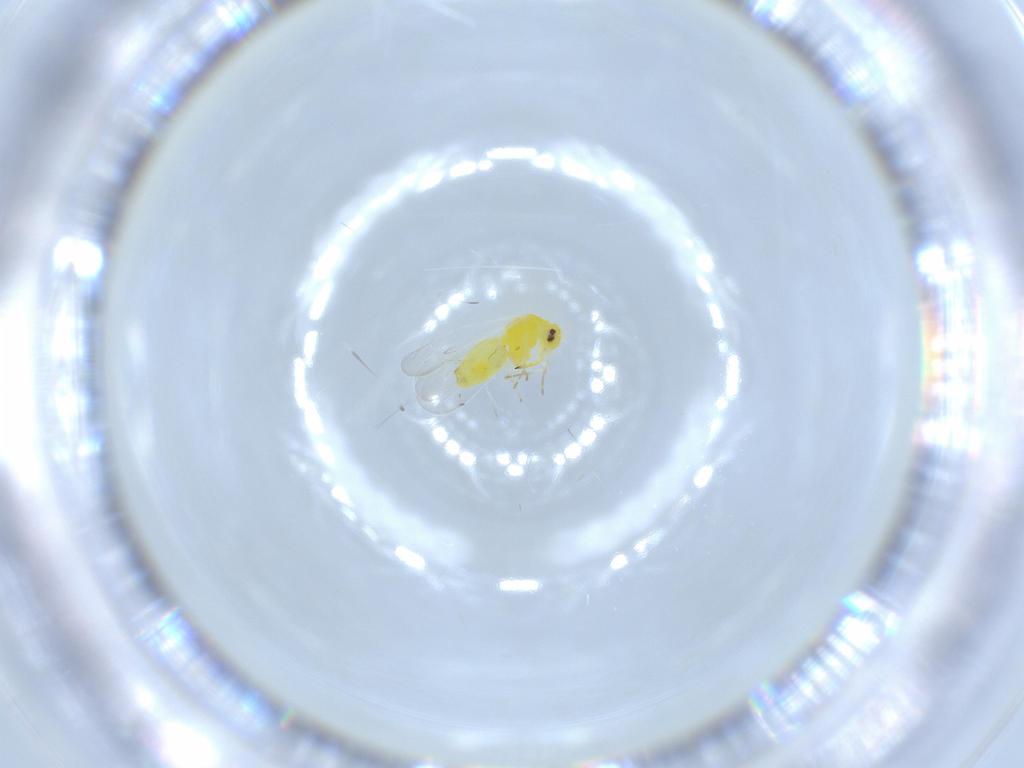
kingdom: Animalia
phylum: Arthropoda
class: Insecta
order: Hemiptera
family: Aleyrodidae
